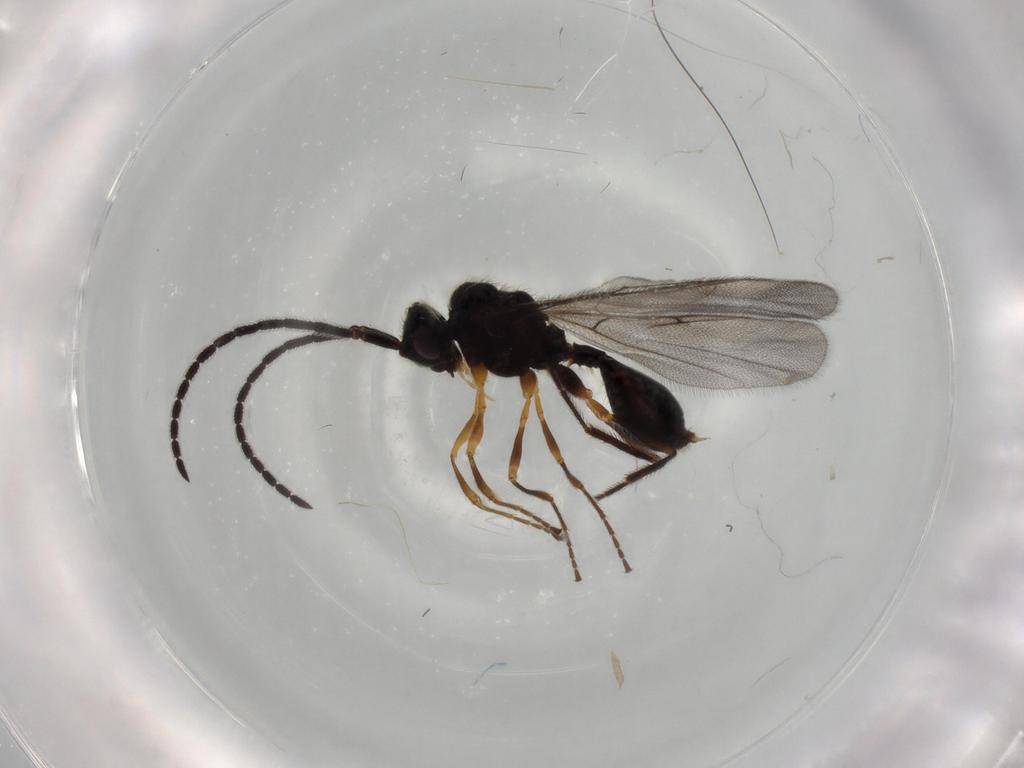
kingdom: Animalia
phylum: Arthropoda
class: Insecta
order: Hymenoptera
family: Diapriidae
